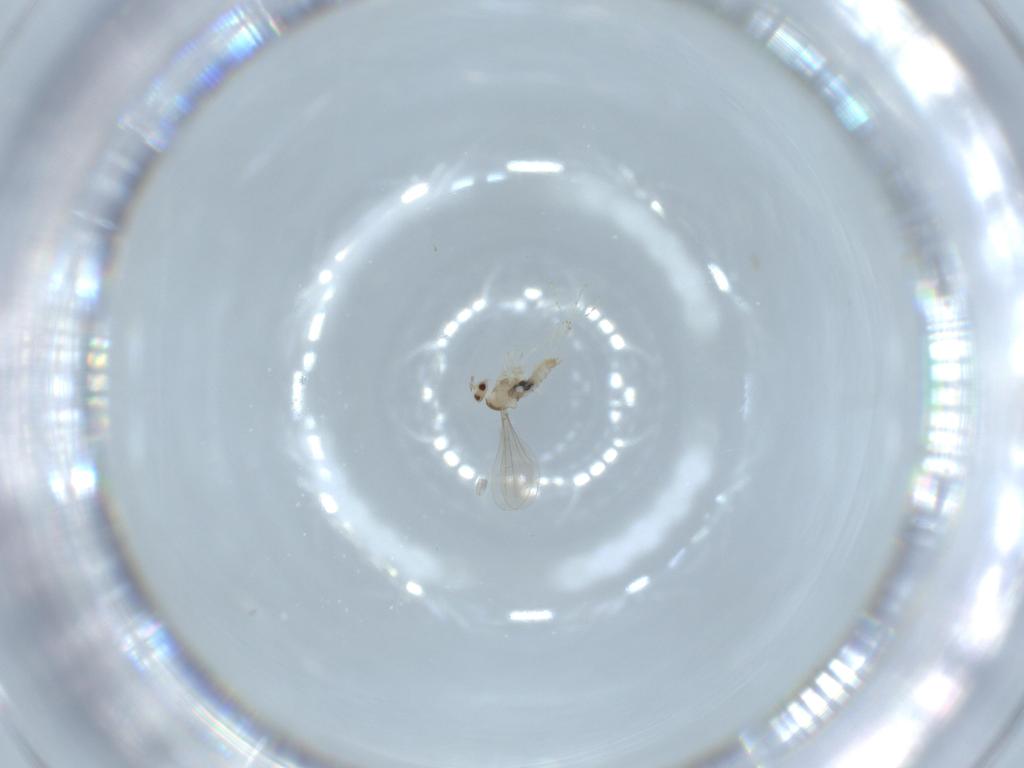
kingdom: Animalia
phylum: Arthropoda
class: Insecta
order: Diptera
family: Cecidomyiidae
